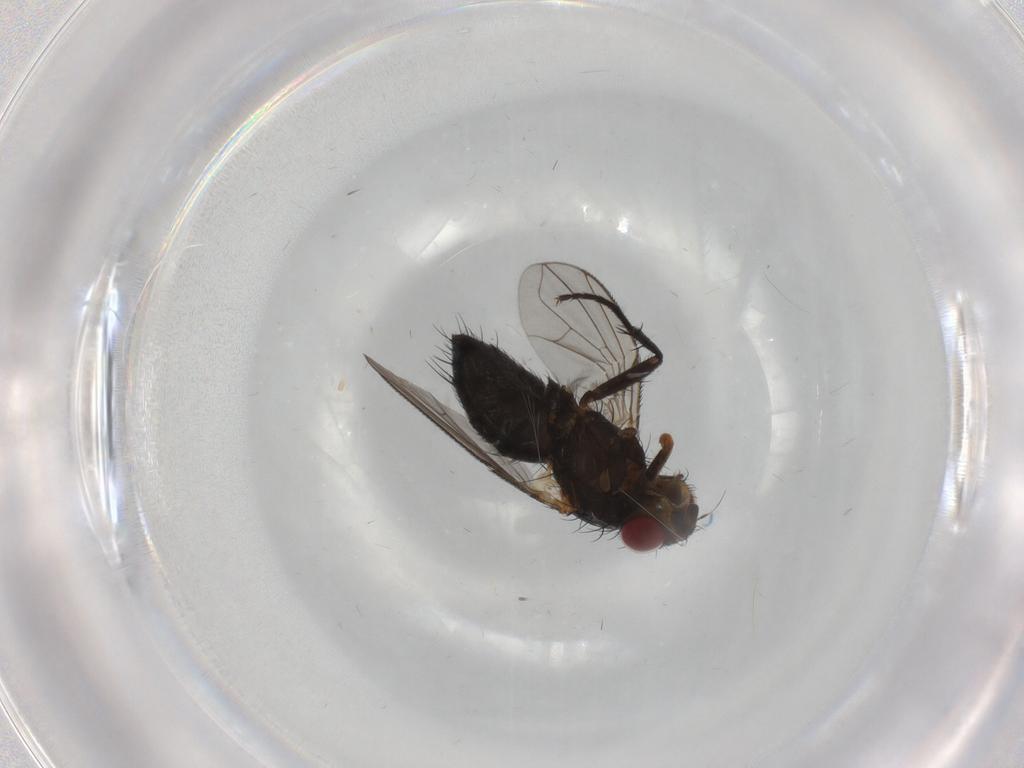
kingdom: Animalia
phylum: Arthropoda
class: Insecta
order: Diptera
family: Calliphoridae
